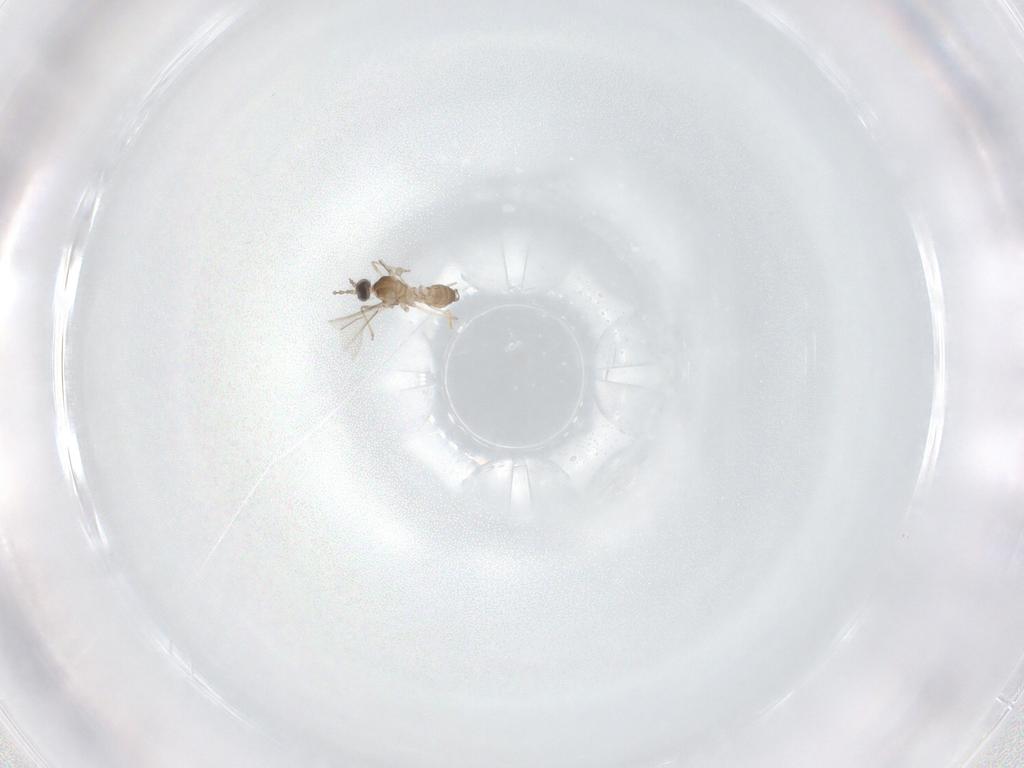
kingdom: Animalia
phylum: Arthropoda
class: Insecta
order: Diptera
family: Cecidomyiidae
